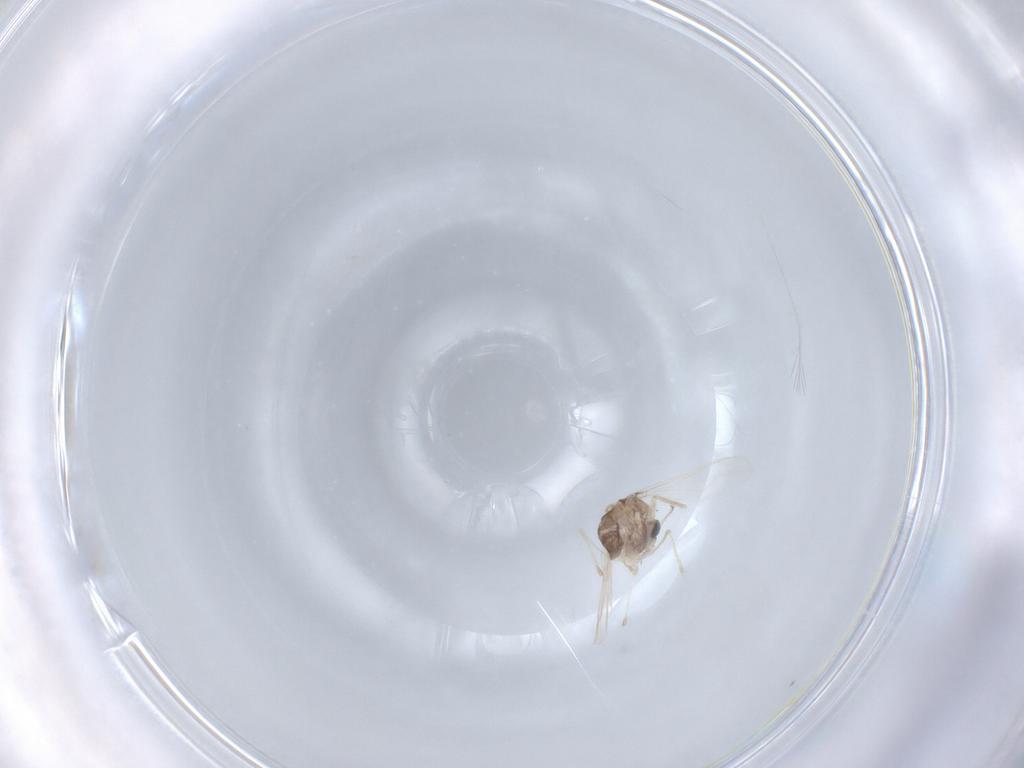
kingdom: Animalia
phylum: Arthropoda
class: Insecta
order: Diptera
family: Chironomidae
